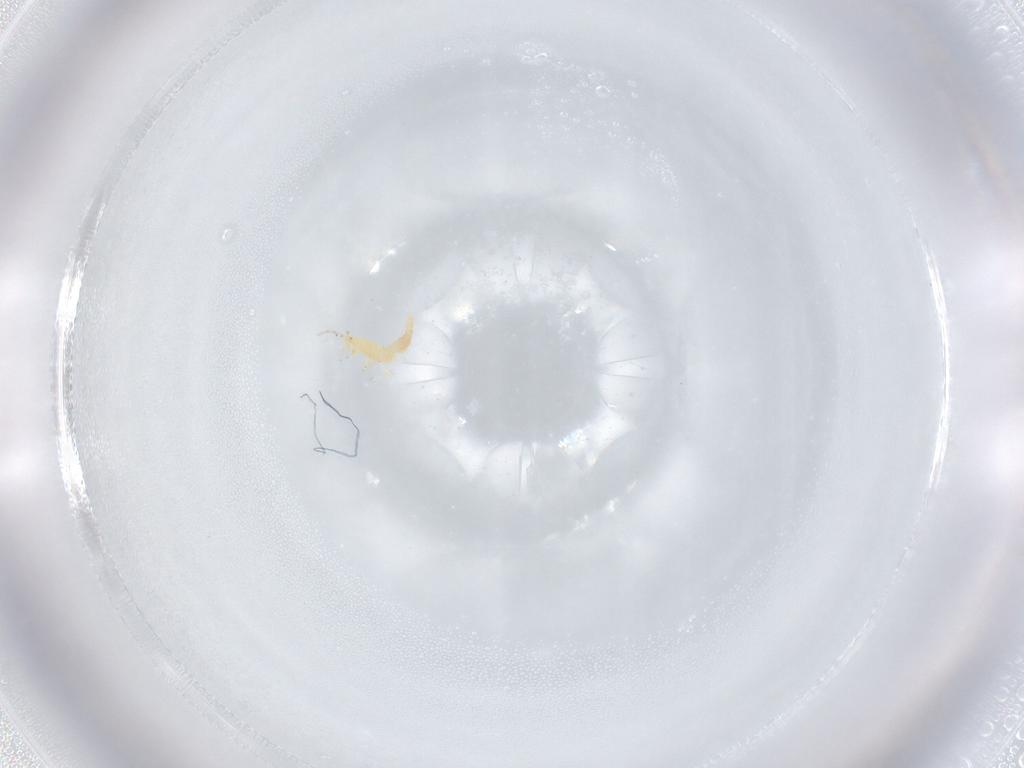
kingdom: Animalia
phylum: Arthropoda
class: Insecta
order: Thysanoptera
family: Aeolothripidae
